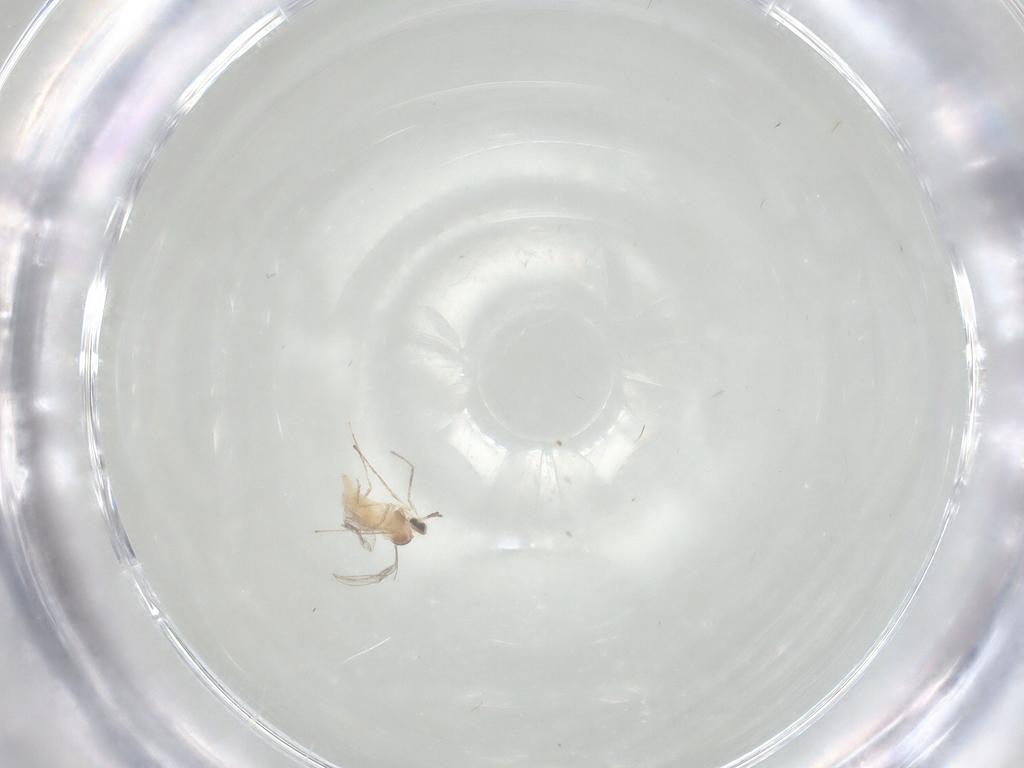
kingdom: Animalia
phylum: Arthropoda
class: Insecta
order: Diptera
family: Cecidomyiidae
